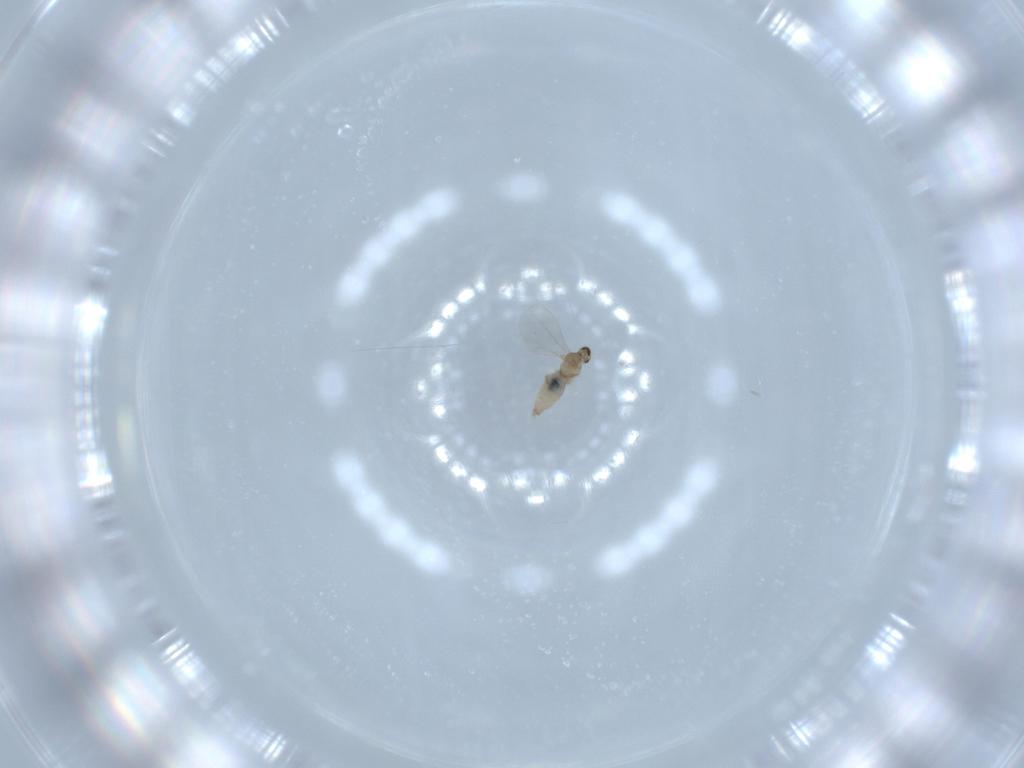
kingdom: Animalia
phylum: Arthropoda
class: Insecta
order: Diptera
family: Cecidomyiidae
